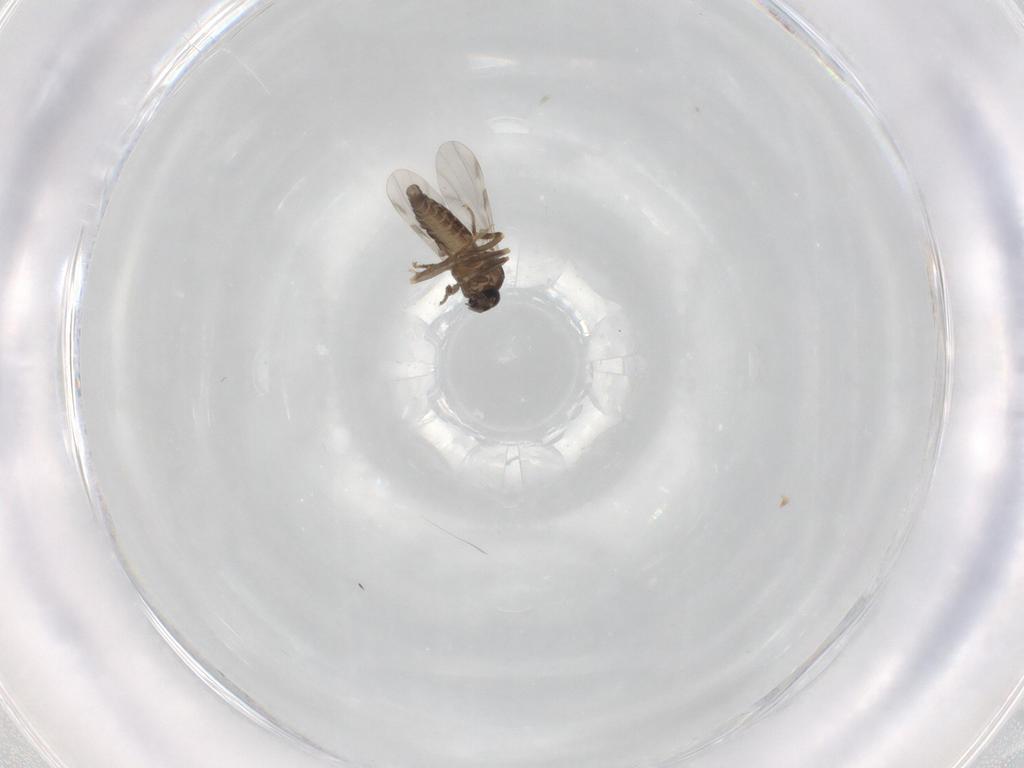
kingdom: Animalia
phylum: Arthropoda
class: Insecta
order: Diptera
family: Ceratopogonidae
